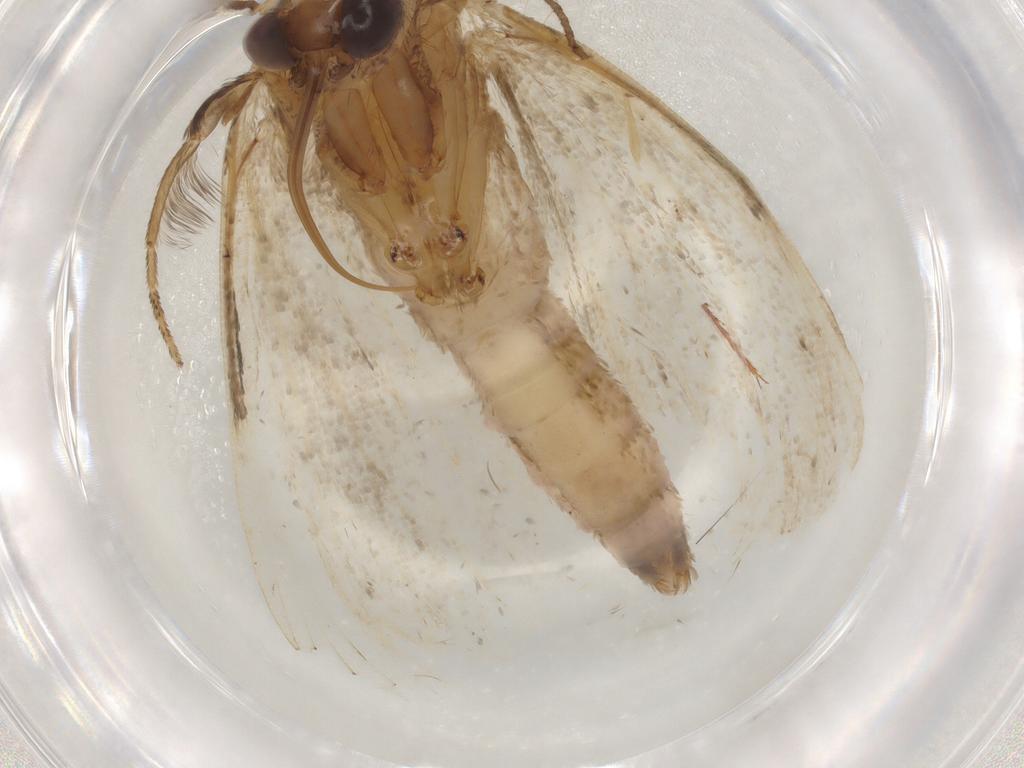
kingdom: Animalia
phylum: Arthropoda
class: Insecta
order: Lepidoptera
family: Erebidae
